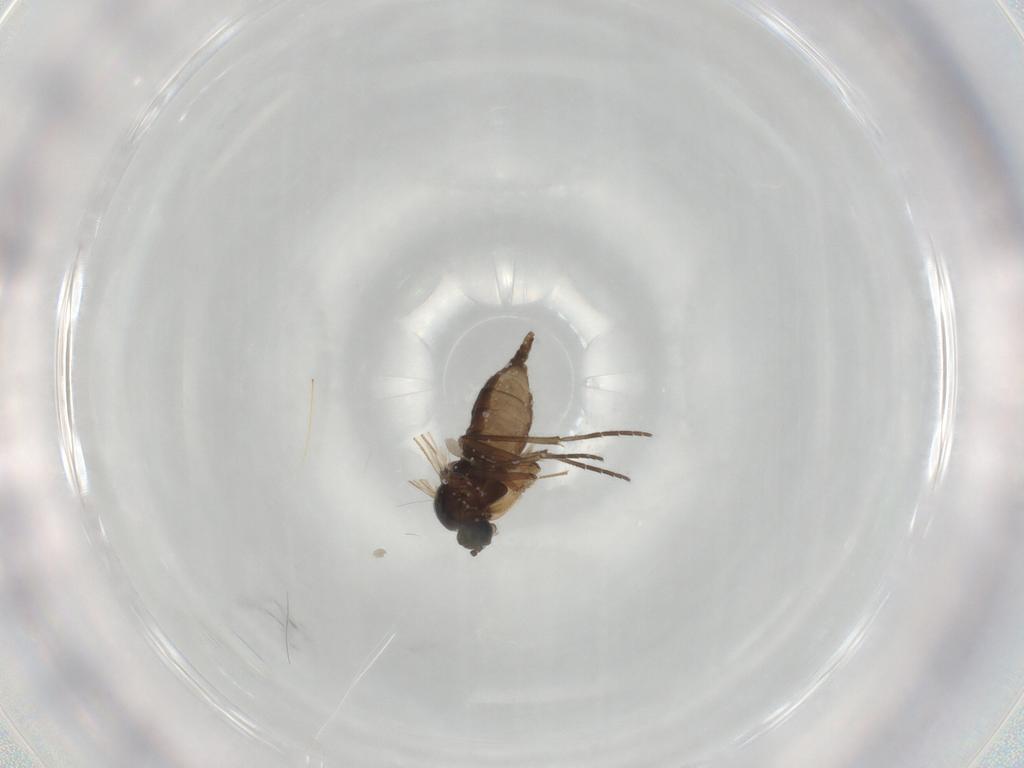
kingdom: Animalia
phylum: Arthropoda
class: Insecta
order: Diptera
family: Sciaridae
